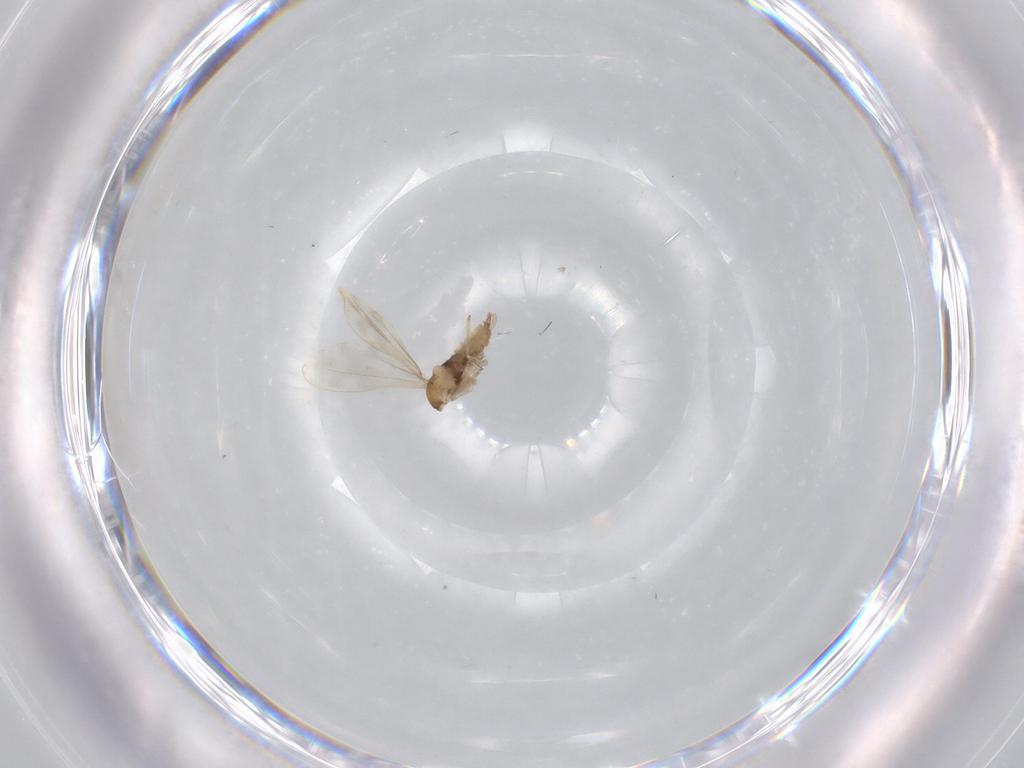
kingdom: Animalia
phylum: Arthropoda
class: Insecta
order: Diptera
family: Cecidomyiidae
